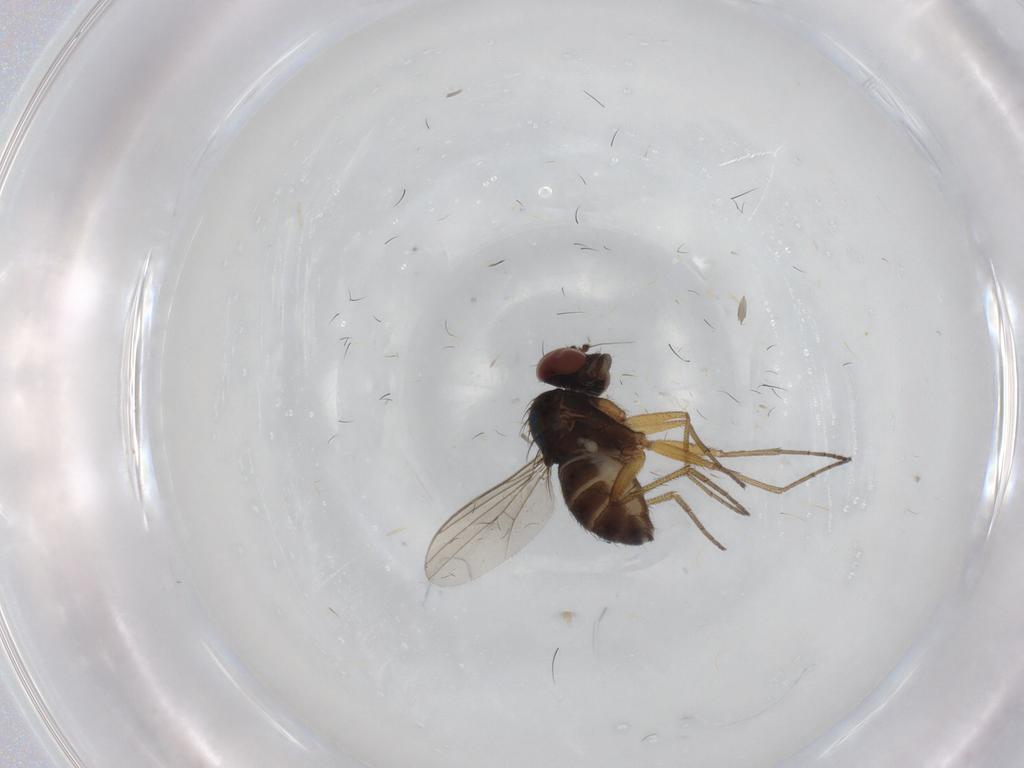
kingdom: Animalia
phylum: Arthropoda
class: Insecta
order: Diptera
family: Dolichopodidae
